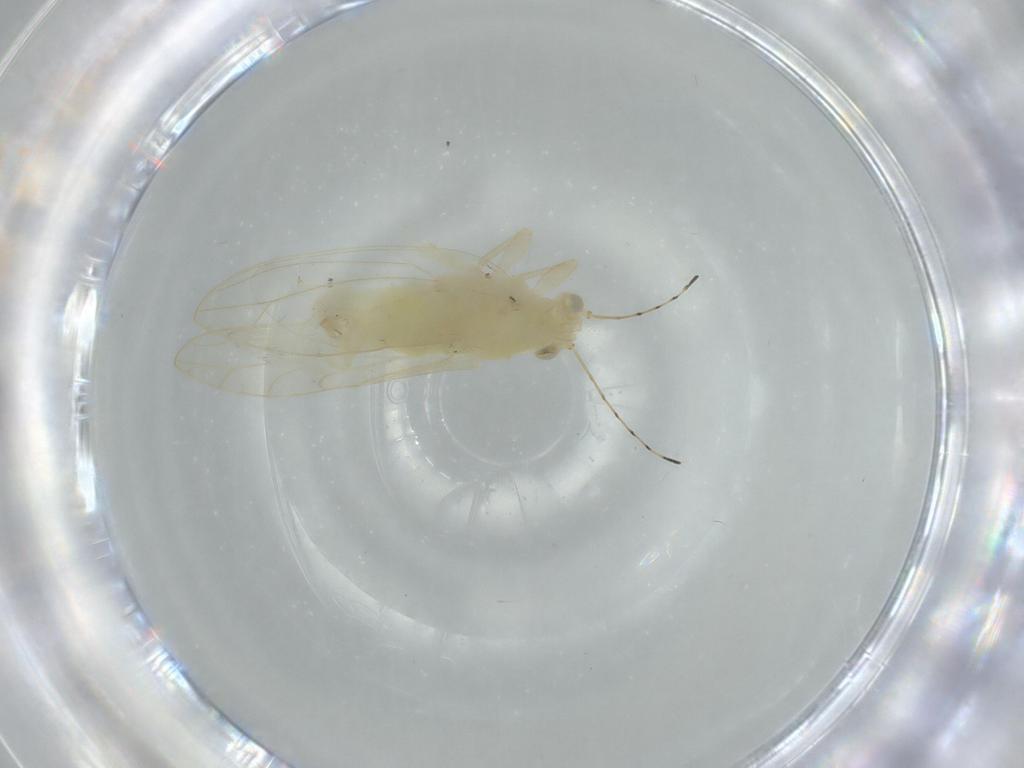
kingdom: Animalia
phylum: Arthropoda
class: Insecta
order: Hemiptera
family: Triozidae
